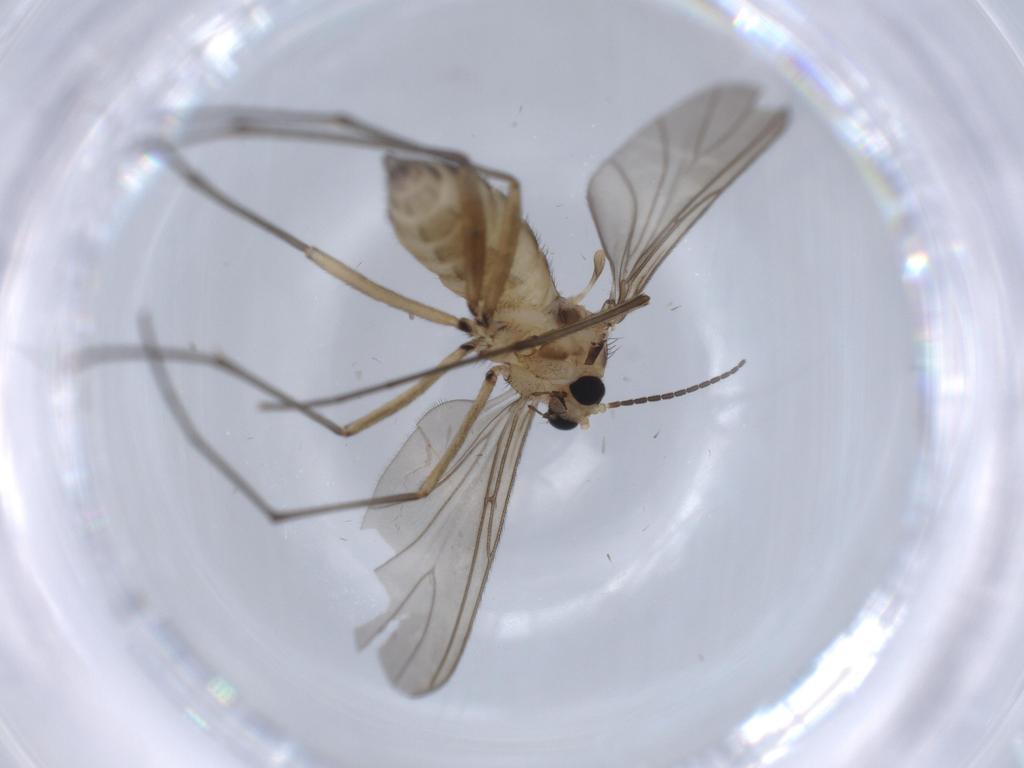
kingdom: Animalia
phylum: Arthropoda
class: Insecta
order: Diptera
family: Sciaridae
